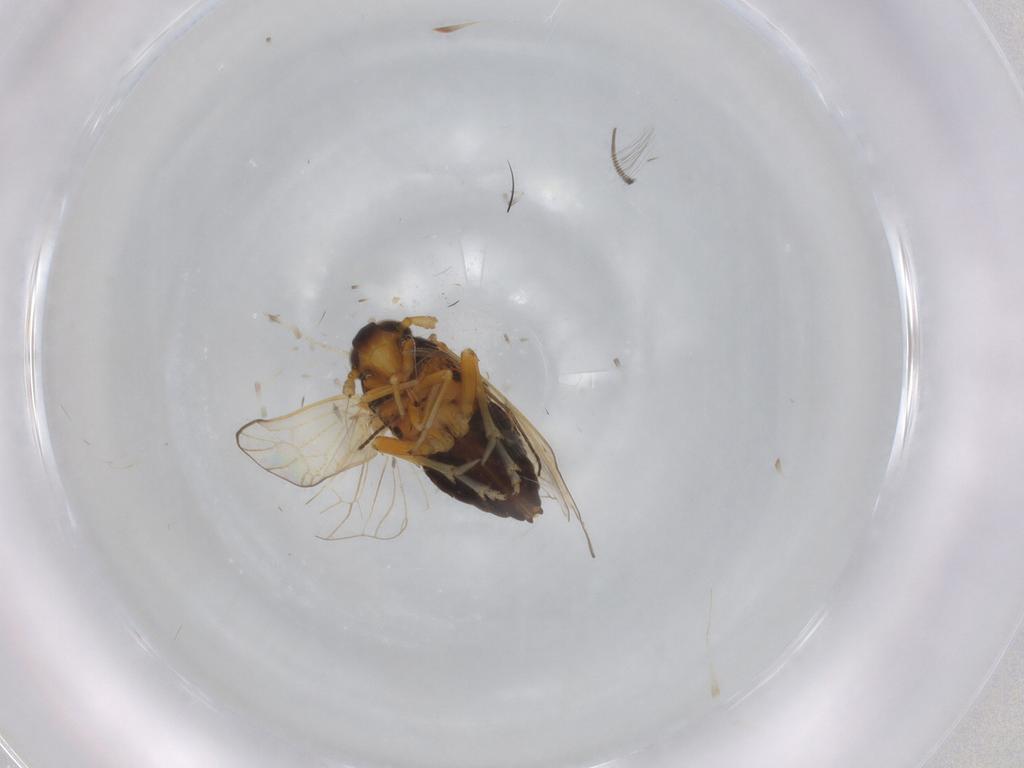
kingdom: Animalia
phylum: Arthropoda
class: Insecta
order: Hemiptera
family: Delphacidae
